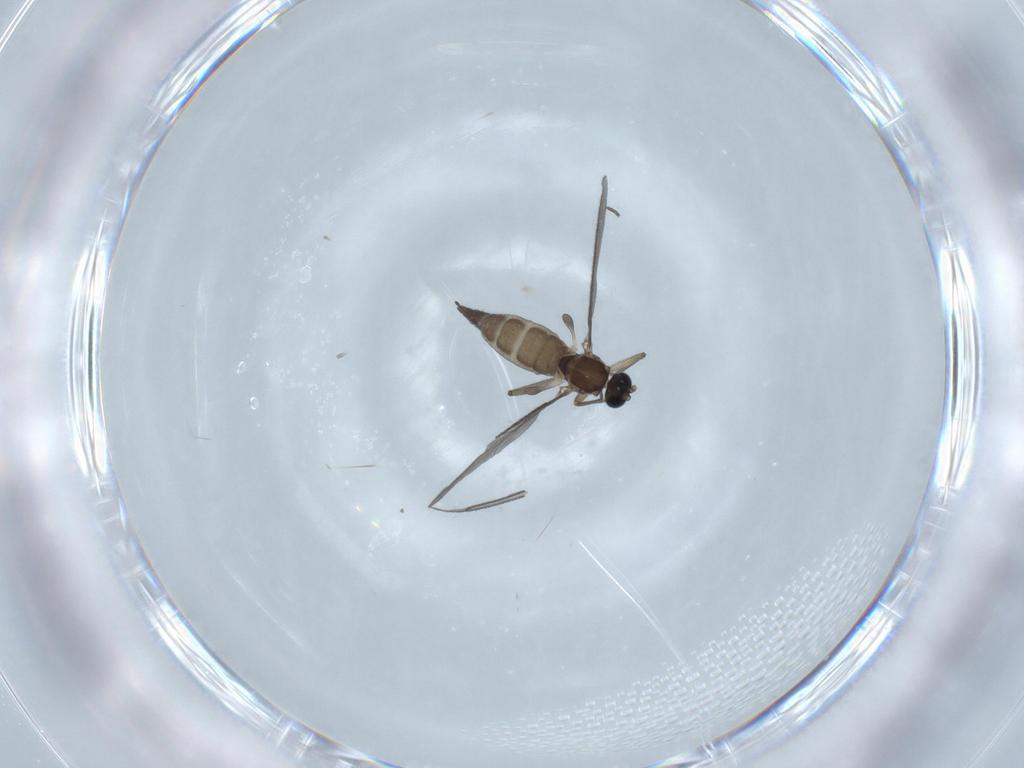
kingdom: Animalia
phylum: Arthropoda
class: Insecta
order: Diptera
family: Sciaridae
